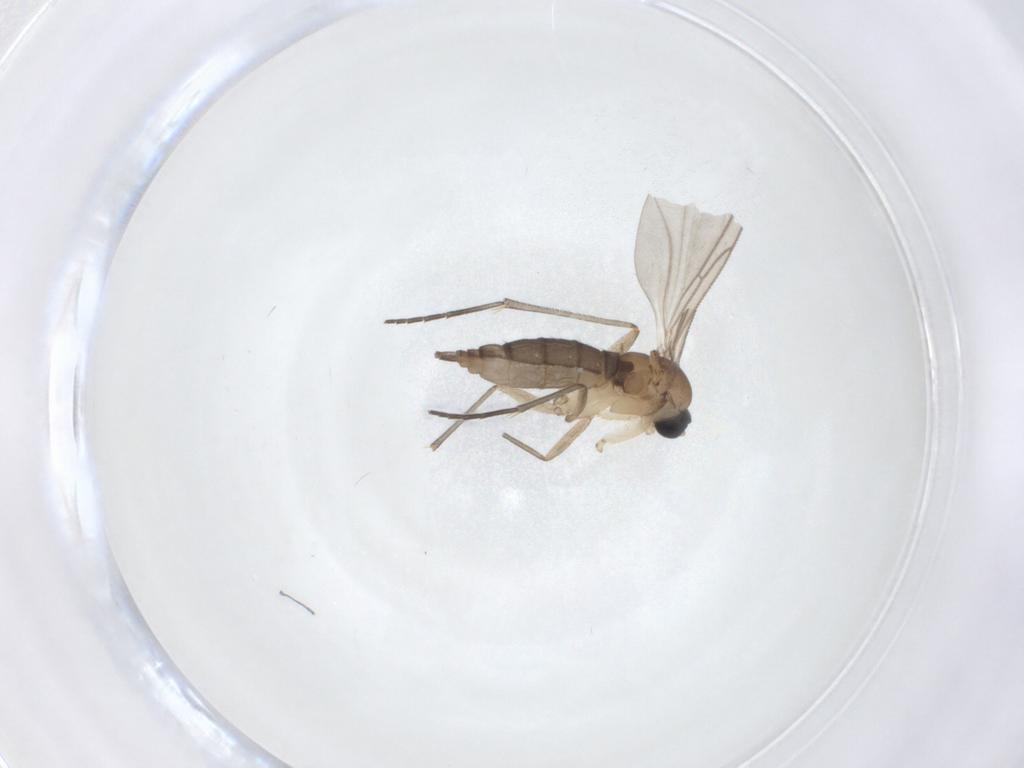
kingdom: Animalia
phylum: Arthropoda
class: Insecta
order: Diptera
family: Sciaridae
